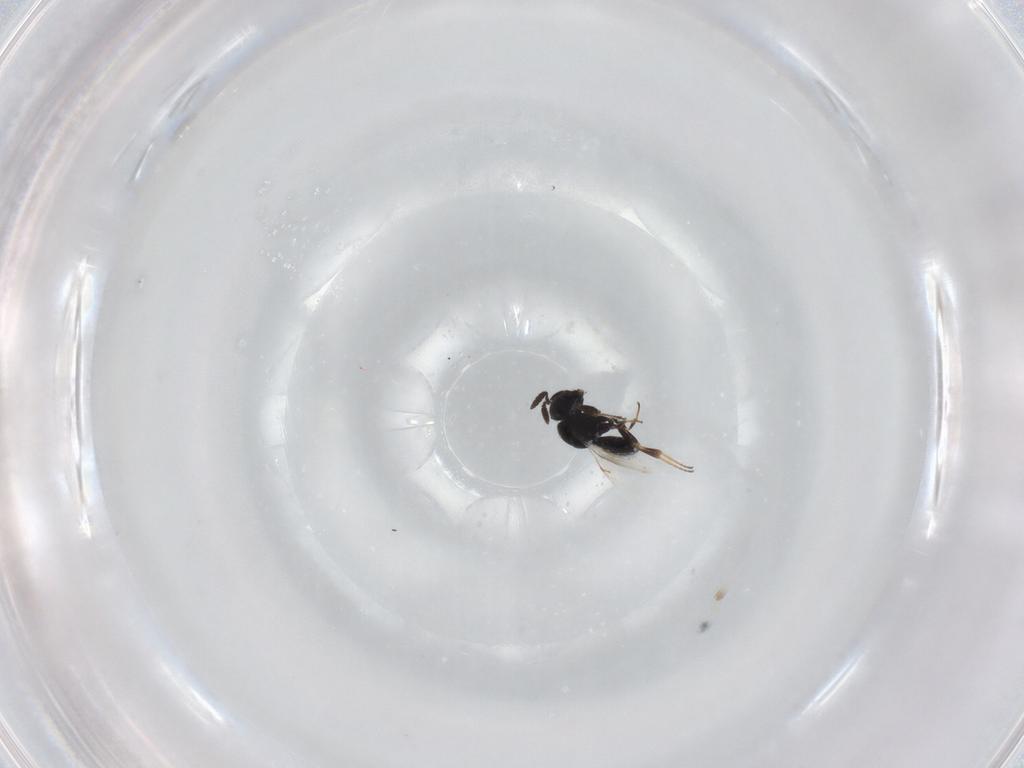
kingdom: Animalia
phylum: Arthropoda
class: Insecta
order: Hymenoptera
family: Scelionidae
